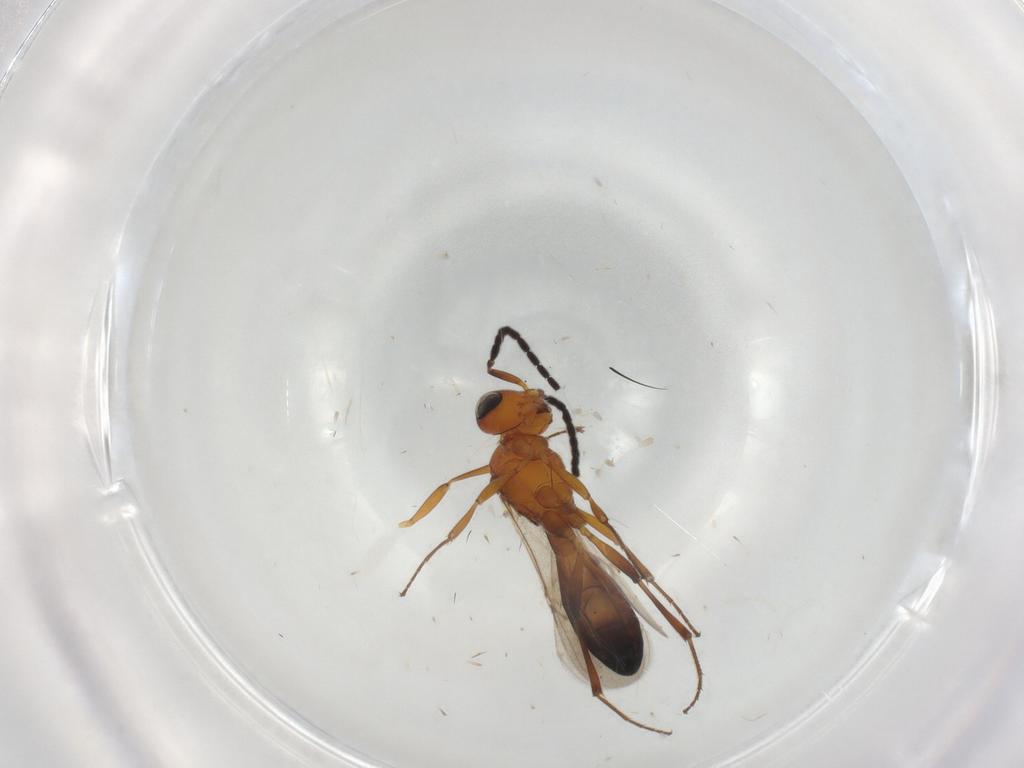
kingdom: Animalia
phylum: Arthropoda
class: Insecta
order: Hymenoptera
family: Scelionidae
